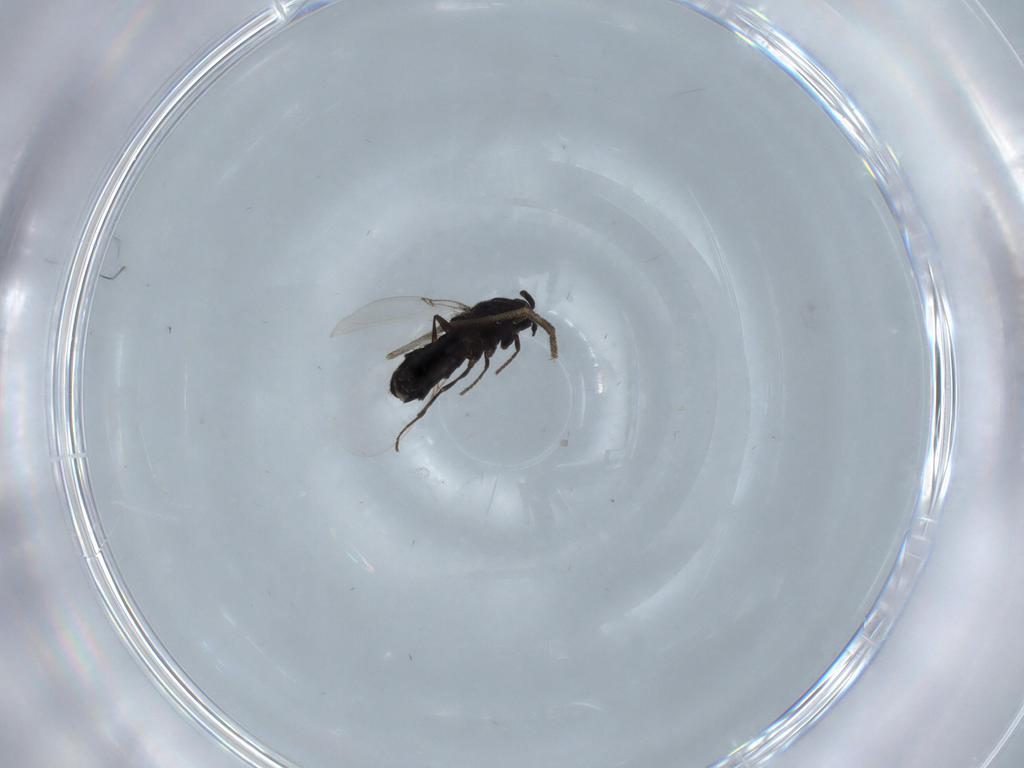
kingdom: Animalia
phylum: Arthropoda
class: Insecta
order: Diptera
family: Scatopsidae
